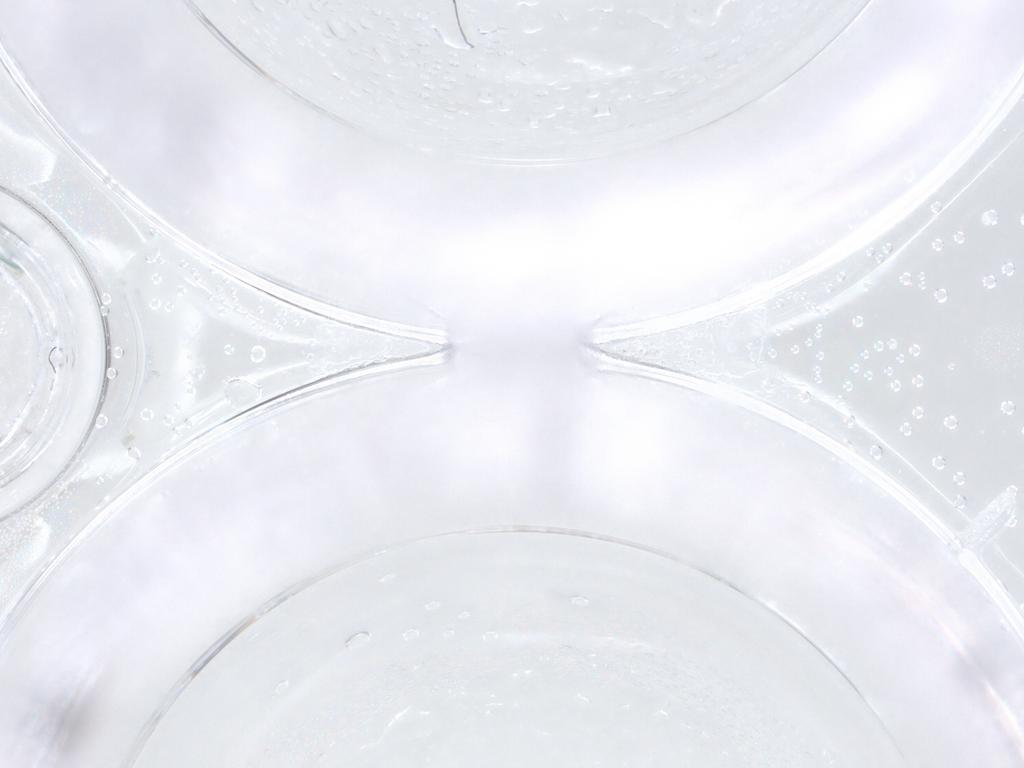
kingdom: Animalia
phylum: Arthropoda
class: Insecta
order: Diptera
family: Chironomidae
